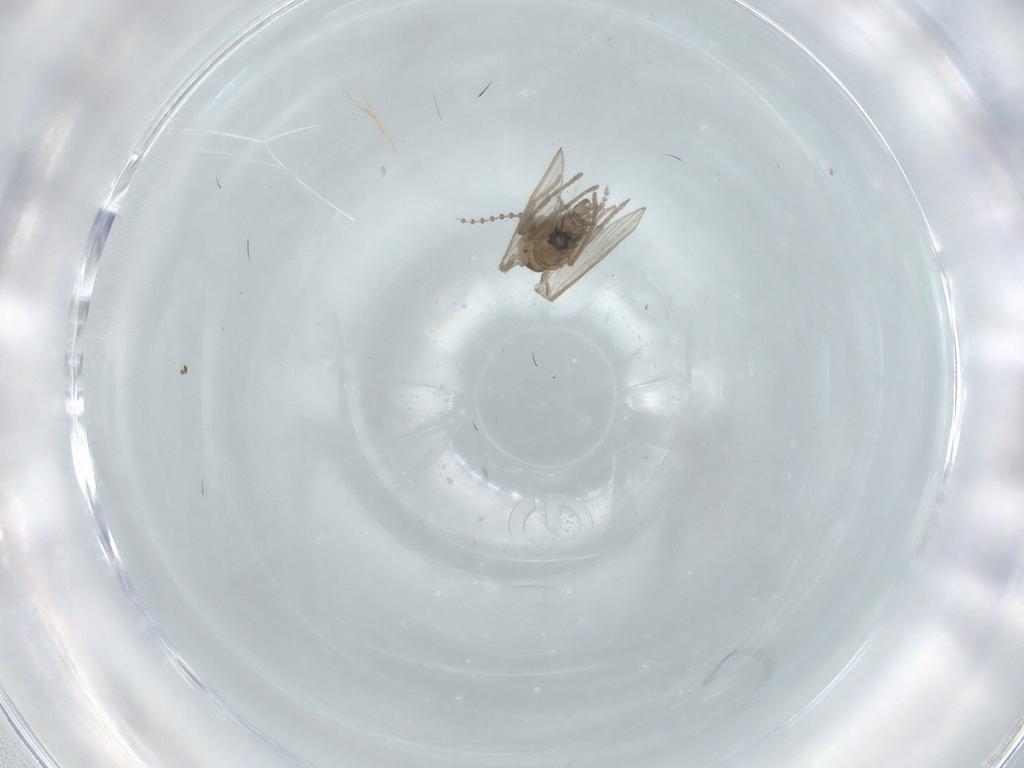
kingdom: Animalia
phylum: Arthropoda
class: Insecta
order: Diptera
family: Psychodidae
